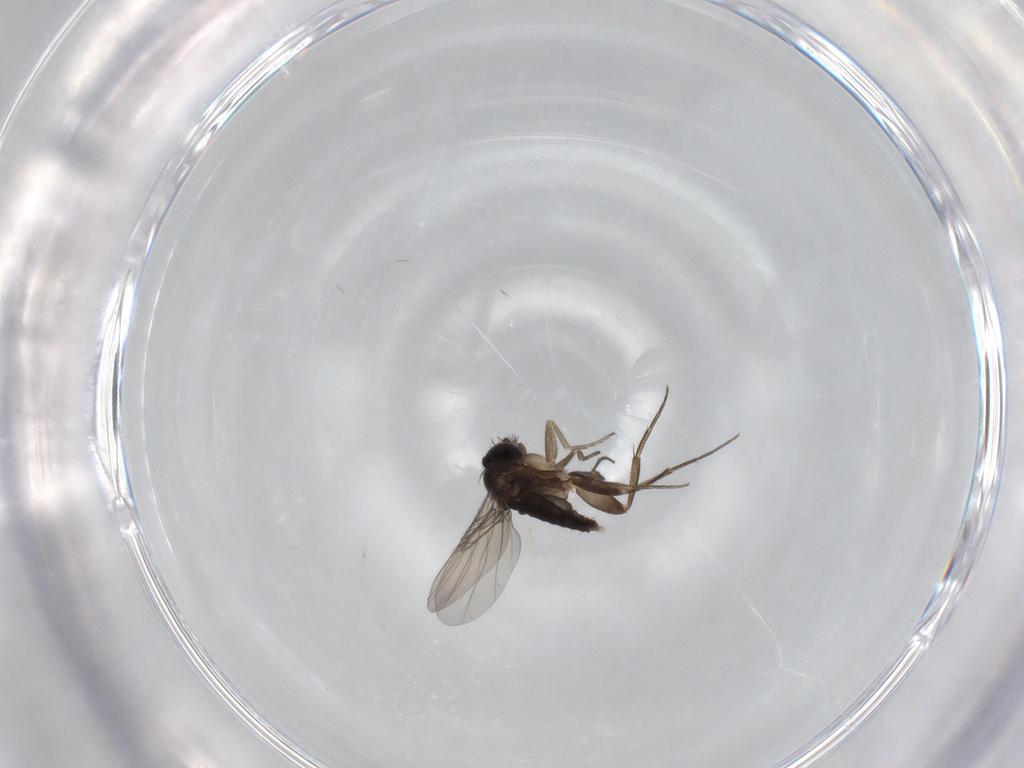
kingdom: Animalia
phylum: Arthropoda
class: Insecta
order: Diptera
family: Phoridae
